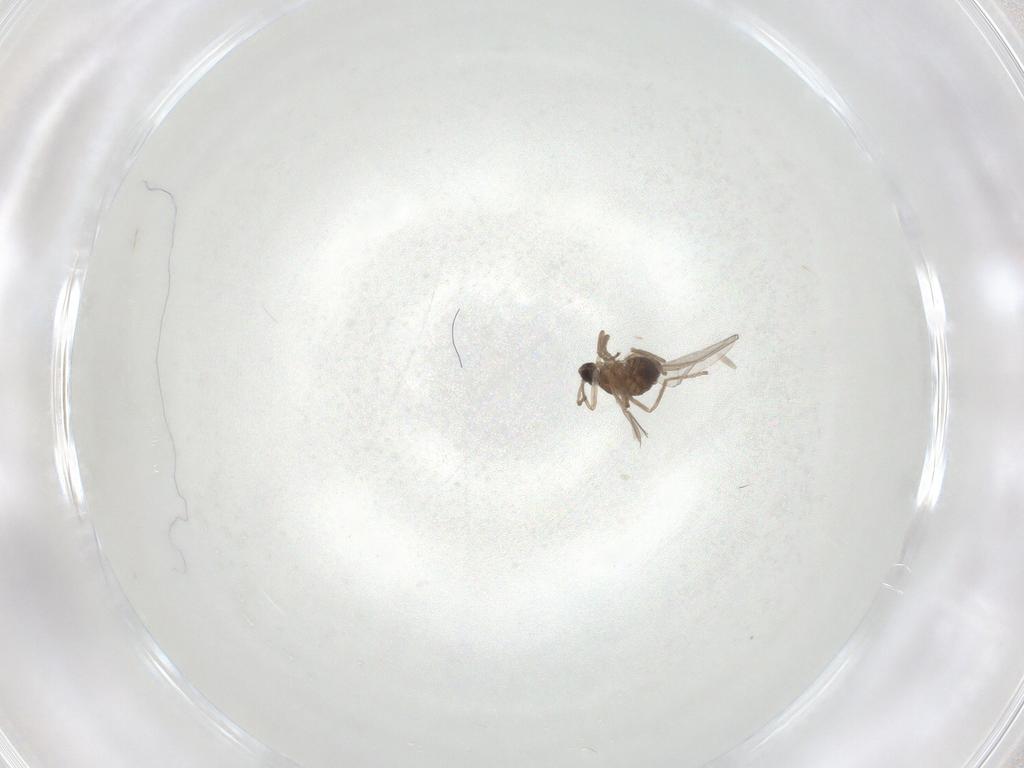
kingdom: Animalia
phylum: Arthropoda
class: Insecta
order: Diptera
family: Cecidomyiidae
